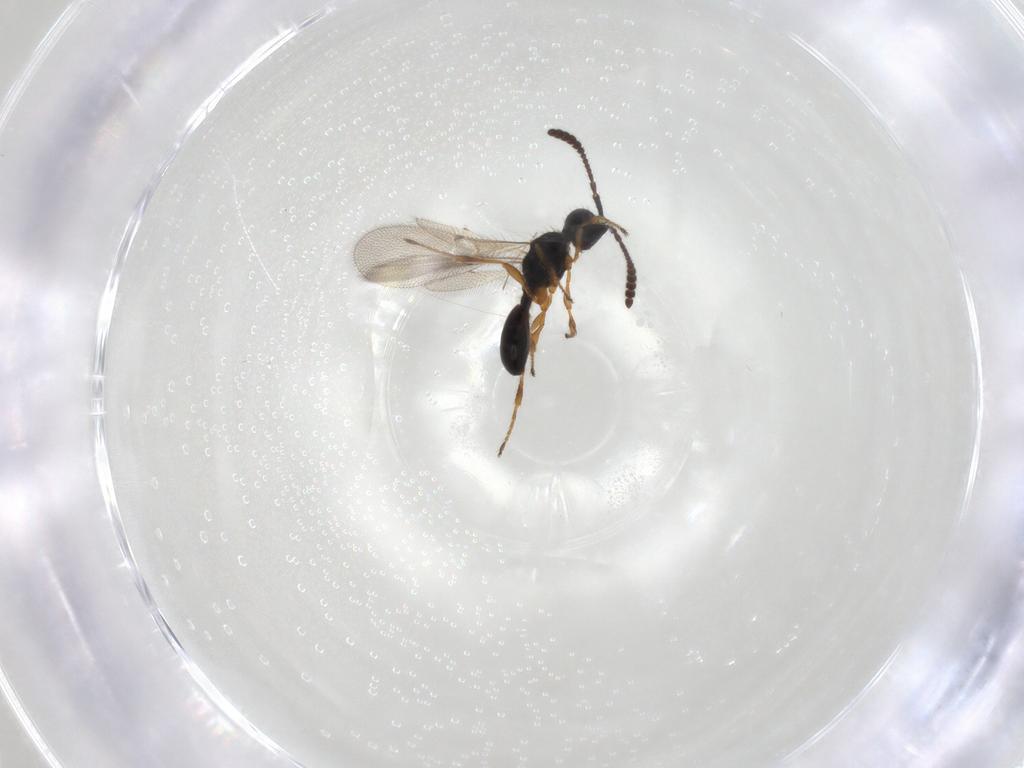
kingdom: Animalia
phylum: Arthropoda
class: Insecta
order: Hymenoptera
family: Diapriidae
